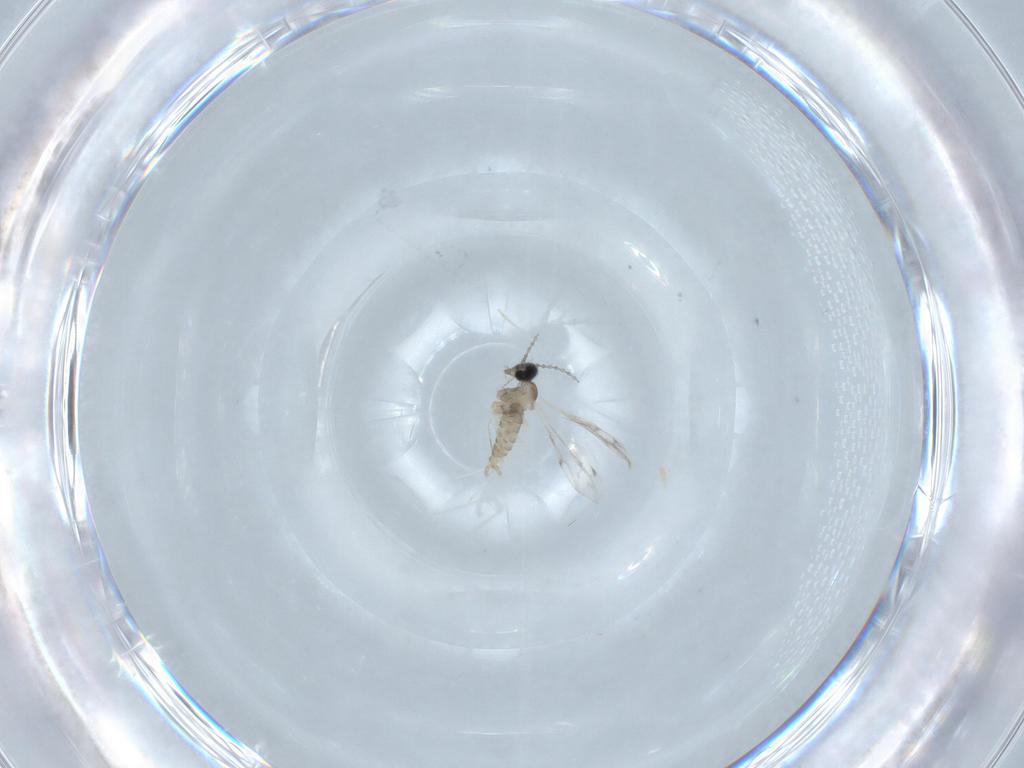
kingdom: Animalia
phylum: Arthropoda
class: Insecta
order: Diptera
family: Cecidomyiidae
